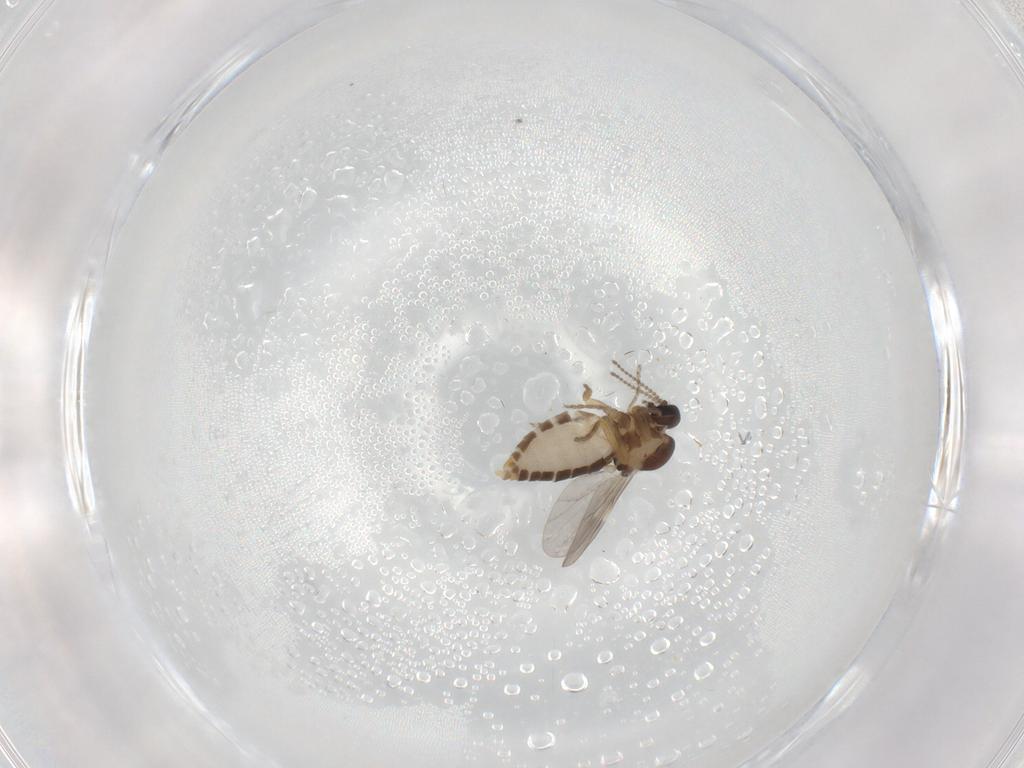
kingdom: Animalia
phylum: Arthropoda
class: Insecta
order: Diptera
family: Ceratopogonidae
